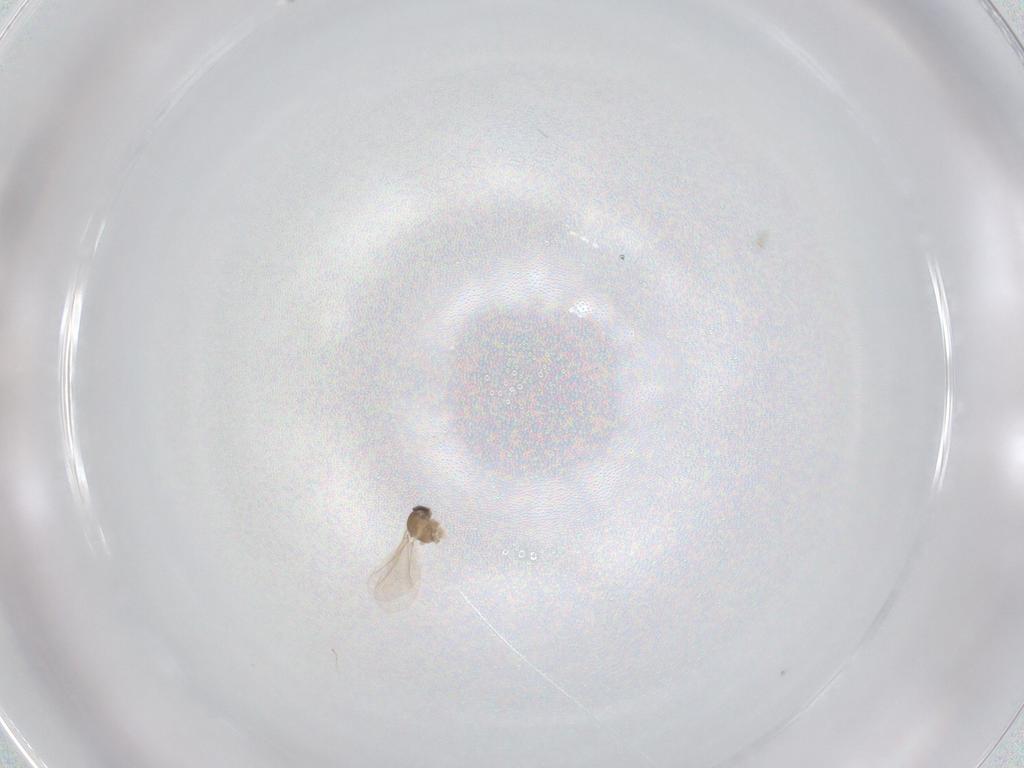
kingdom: Animalia
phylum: Arthropoda
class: Insecta
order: Diptera
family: Cecidomyiidae
